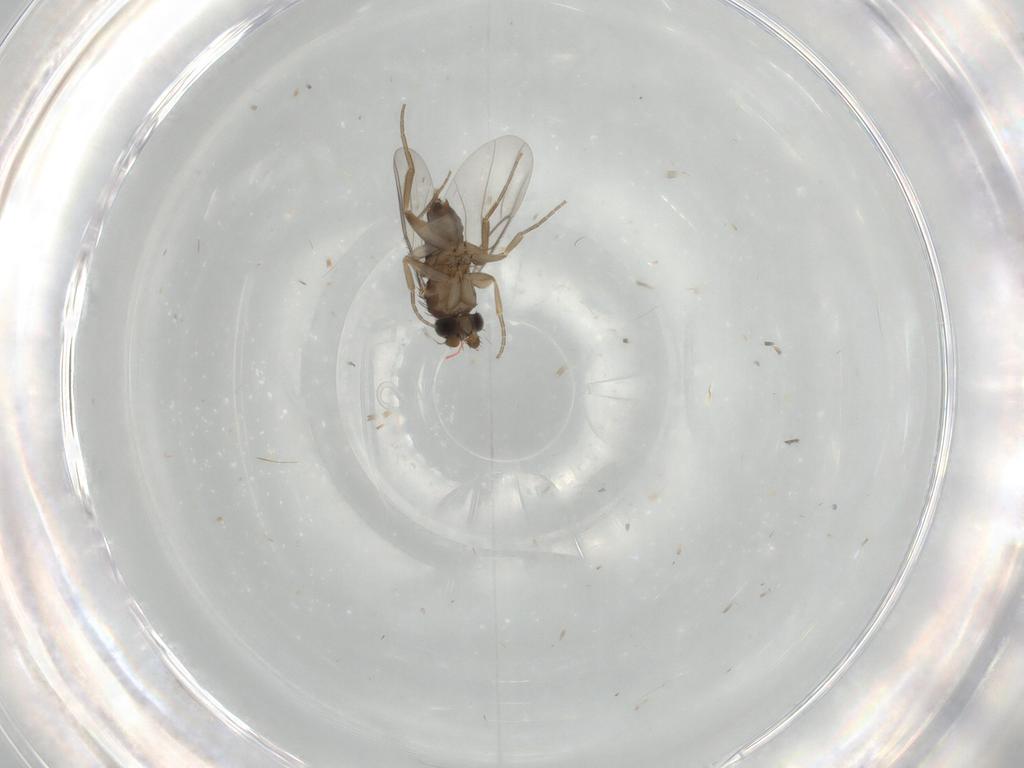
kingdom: Animalia
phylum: Arthropoda
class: Insecta
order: Diptera
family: Phoridae
